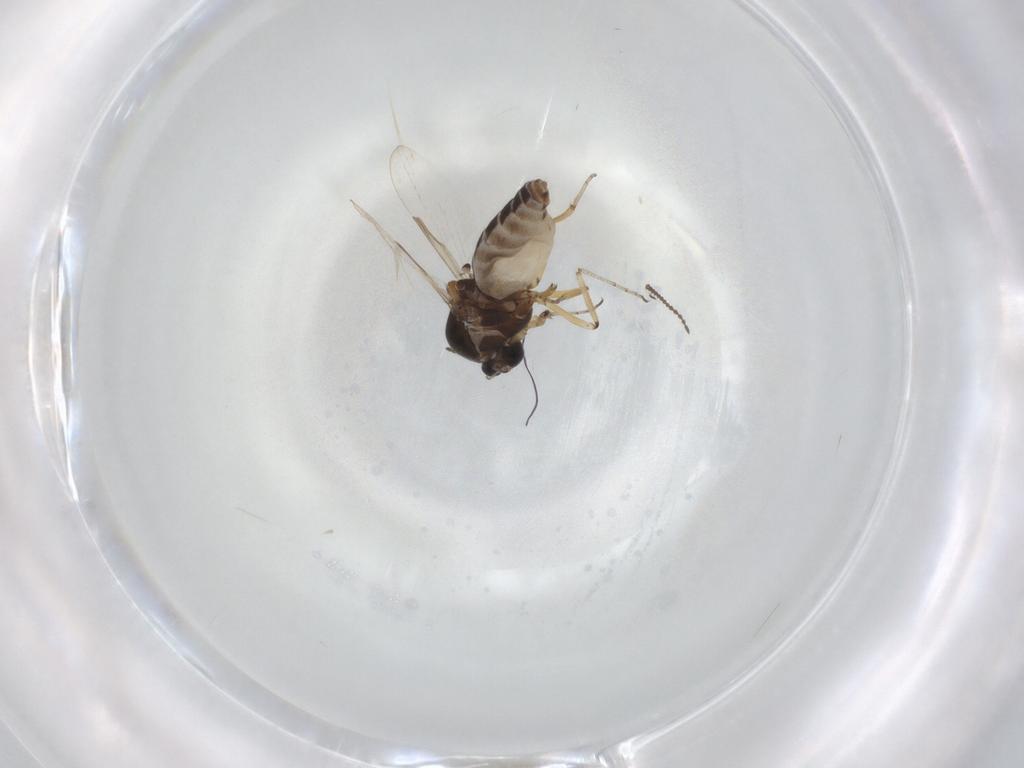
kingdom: Animalia
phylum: Arthropoda
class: Insecta
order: Diptera
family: Ceratopogonidae
